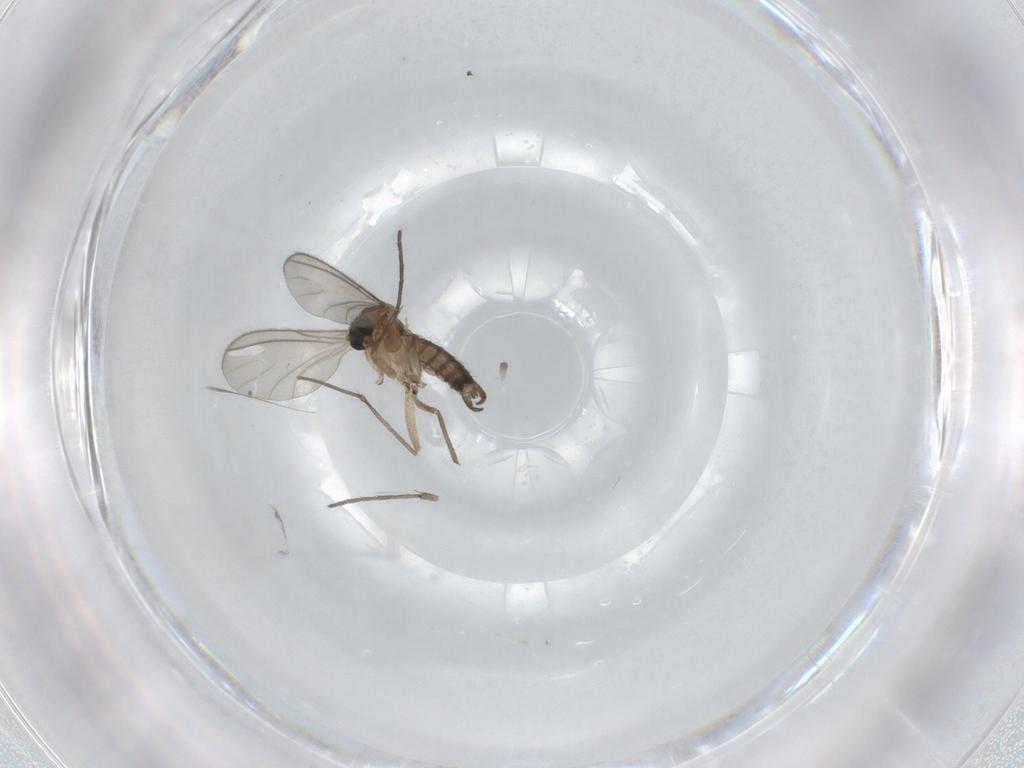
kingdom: Animalia
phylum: Arthropoda
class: Insecta
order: Diptera
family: Sciaridae
